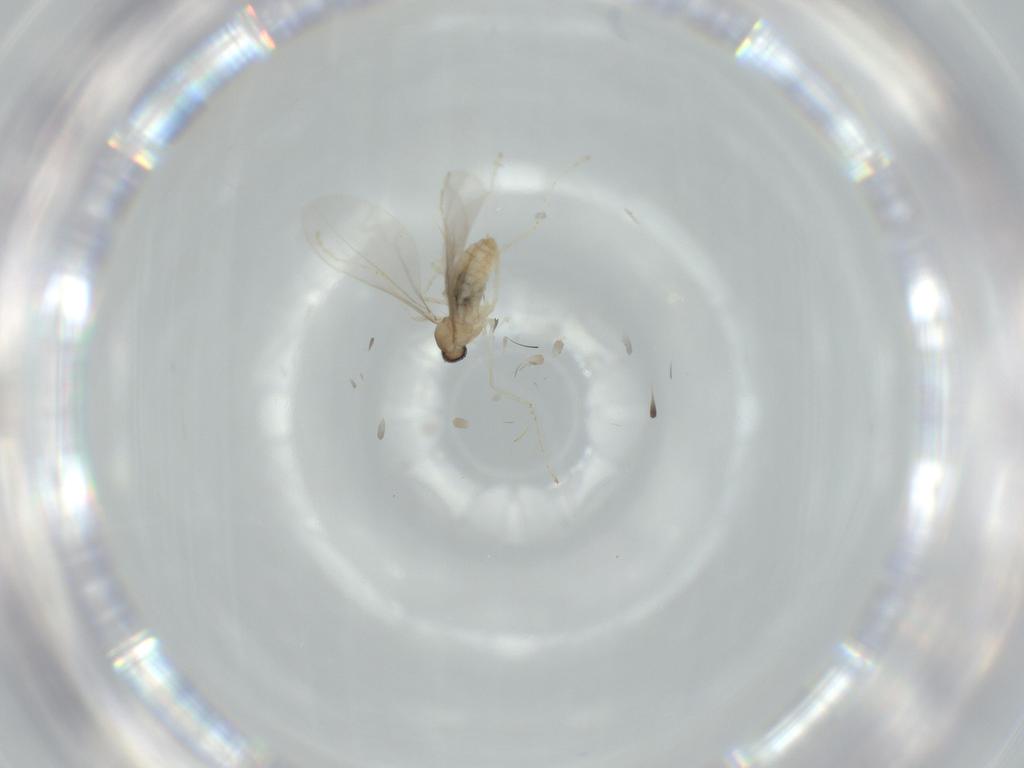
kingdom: Animalia
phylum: Arthropoda
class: Insecta
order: Diptera
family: Cecidomyiidae
